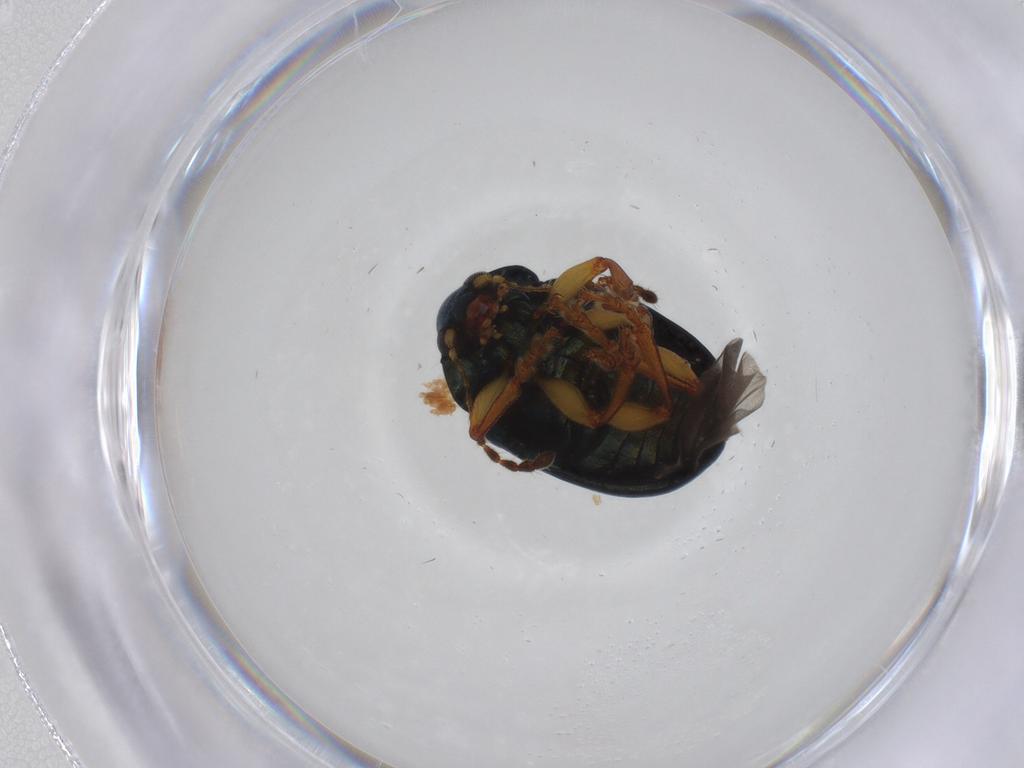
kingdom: Animalia
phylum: Arthropoda
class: Insecta
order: Coleoptera
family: Chrysomelidae
